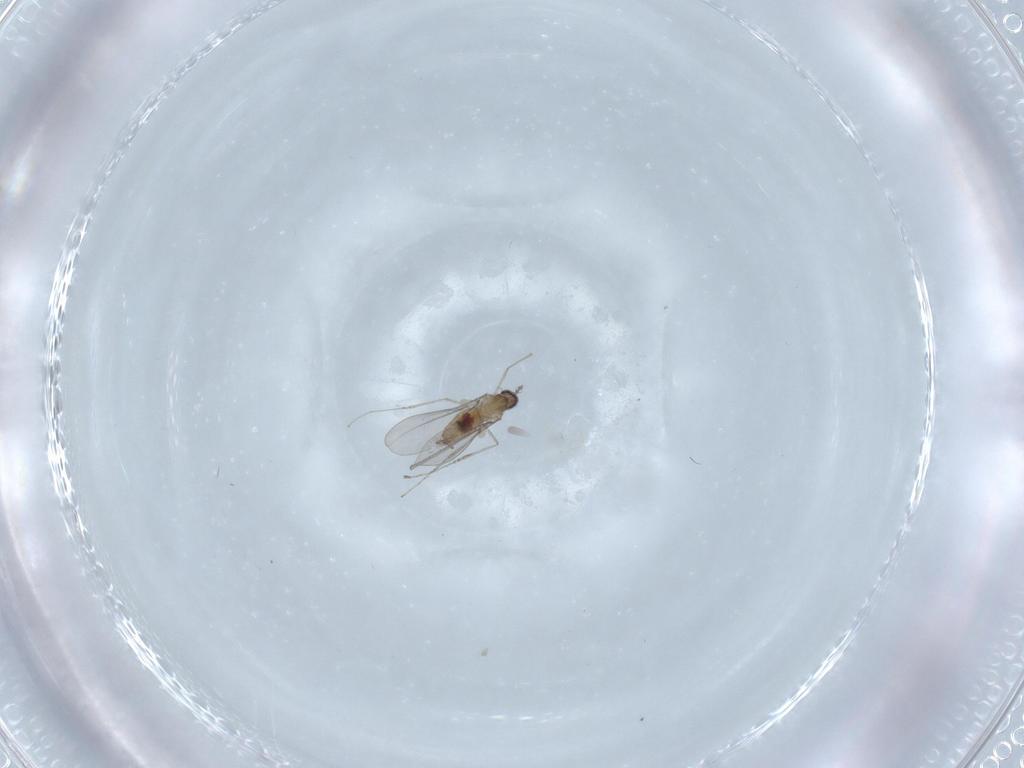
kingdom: Animalia
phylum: Arthropoda
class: Insecta
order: Diptera
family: Cecidomyiidae
